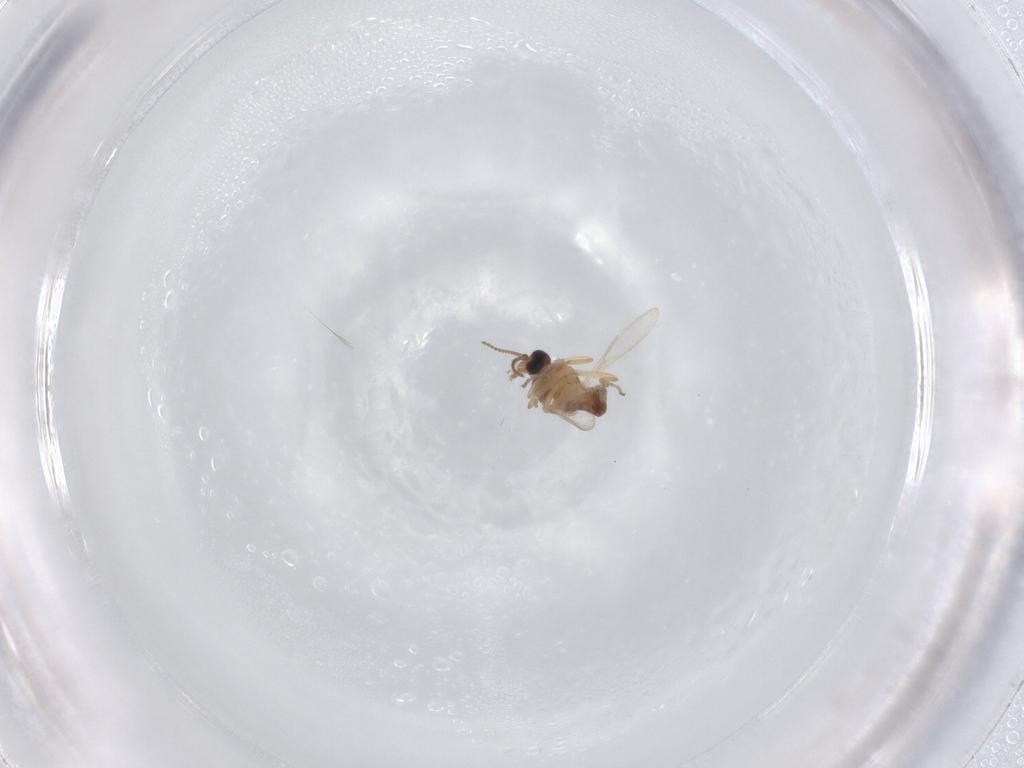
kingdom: Animalia
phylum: Arthropoda
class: Insecta
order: Diptera
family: Ceratopogonidae
